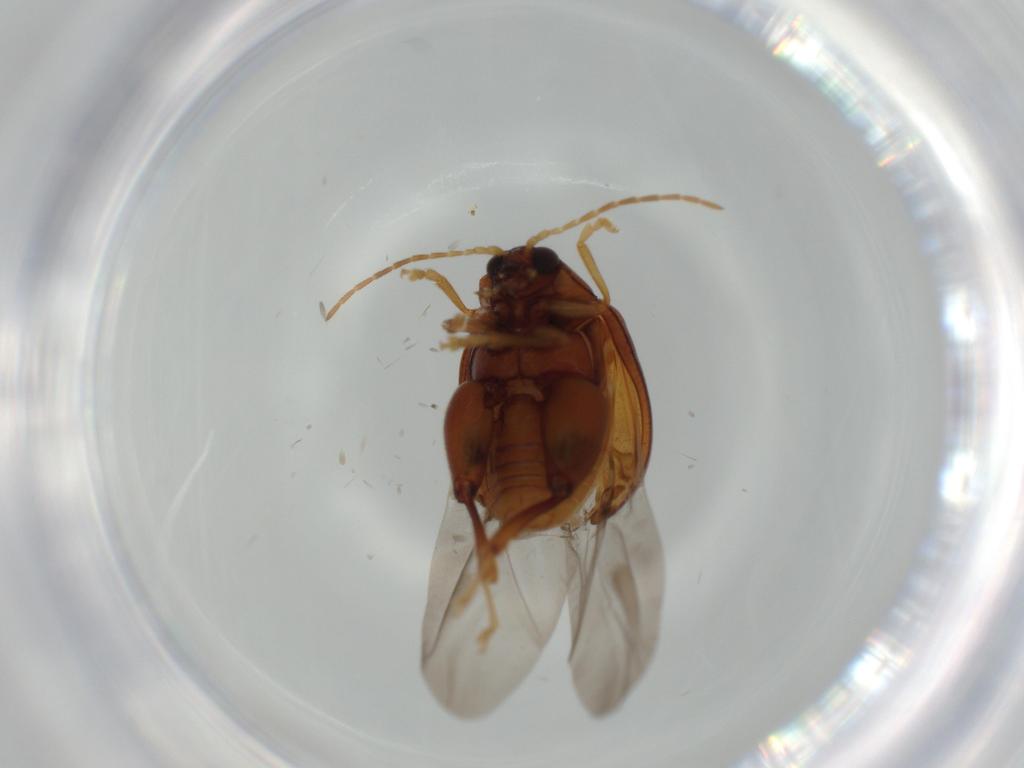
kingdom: Animalia
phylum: Arthropoda
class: Insecta
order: Coleoptera
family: Chrysomelidae
